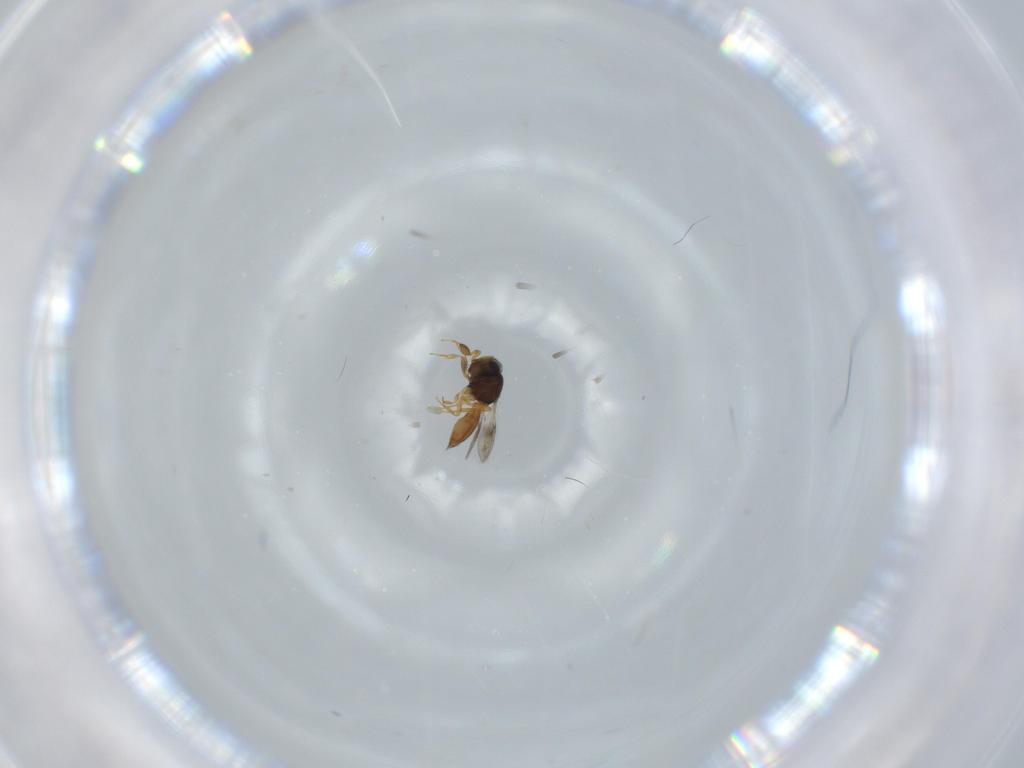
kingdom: Animalia
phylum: Arthropoda
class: Insecta
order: Hymenoptera
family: Scelionidae
